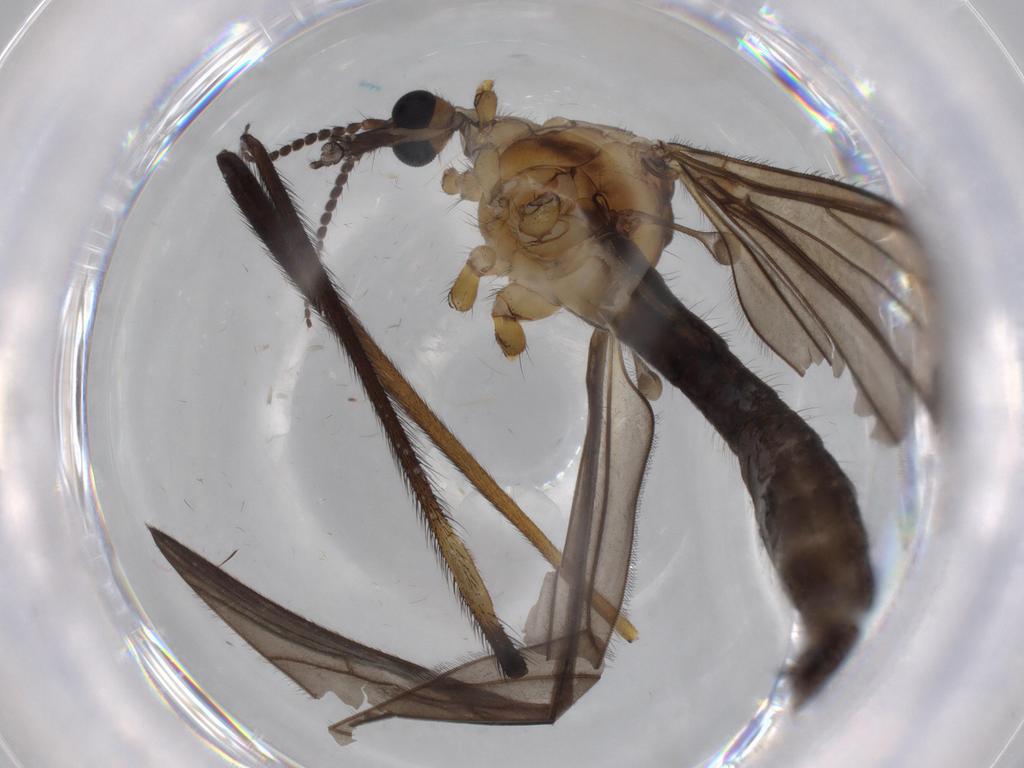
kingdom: Animalia
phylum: Arthropoda
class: Insecta
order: Diptera
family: Limoniidae
